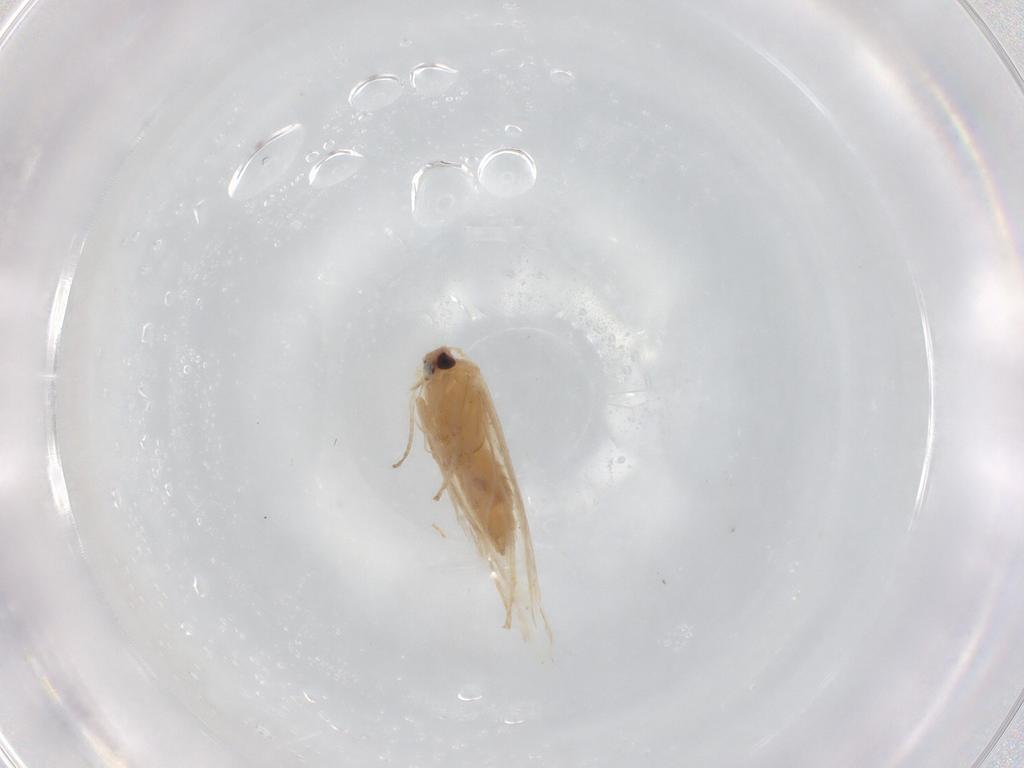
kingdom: Animalia
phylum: Arthropoda
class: Insecta
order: Lepidoptera
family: Coleophoridae
